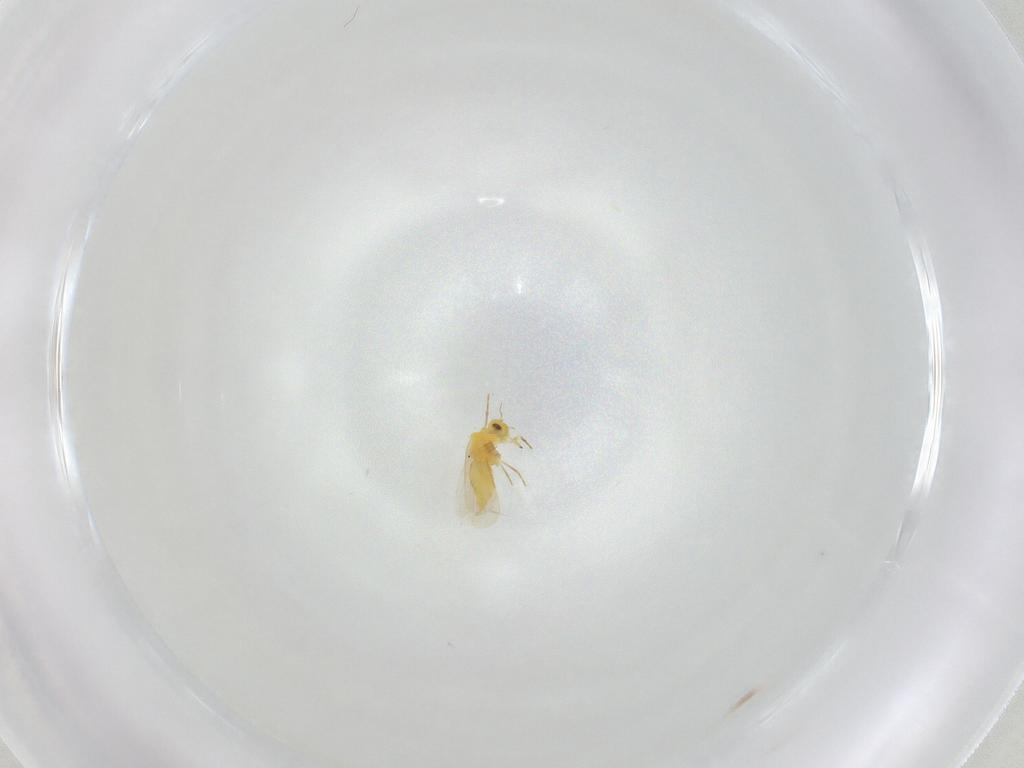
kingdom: Animalia
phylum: Arthropoda
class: Insecta
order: Hemiptera
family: Aleyrodidae
